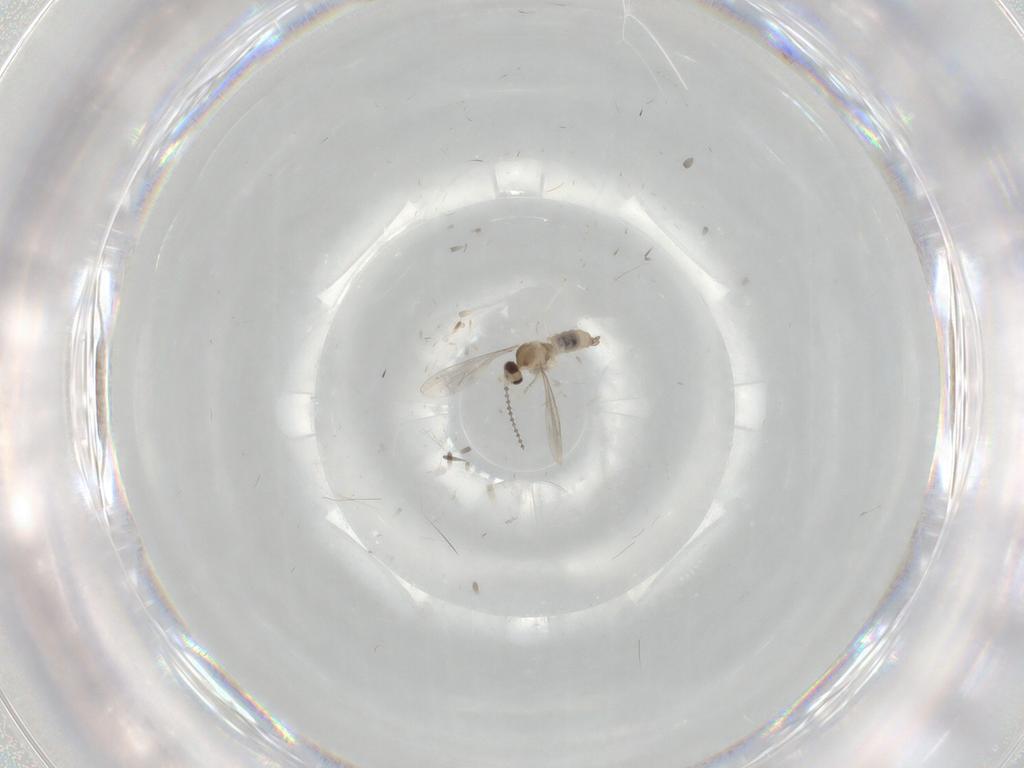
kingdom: Animalia
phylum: Arthropoda
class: Insecta
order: Diptera
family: Cecidomyiidae
